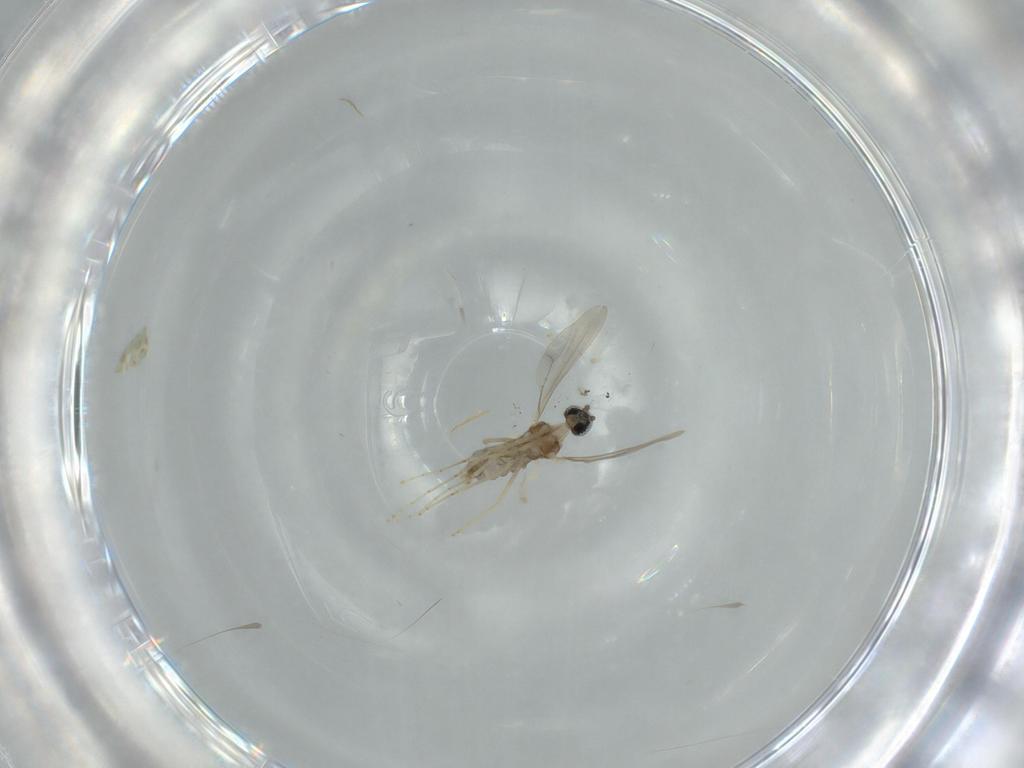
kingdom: Animalia
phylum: Arthropoda
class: Insecta
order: Diptera
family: Cecidomyiidae
